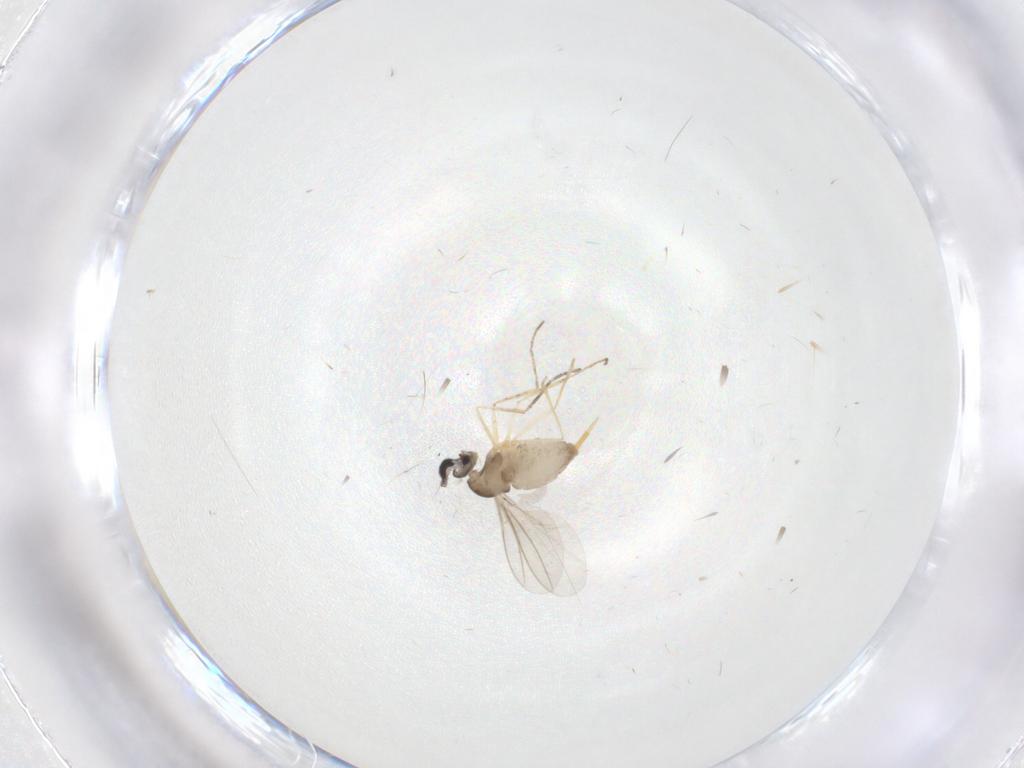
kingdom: Animalia
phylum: Arthropoda
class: Insecta
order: Diptera
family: Cecidomyiidae
